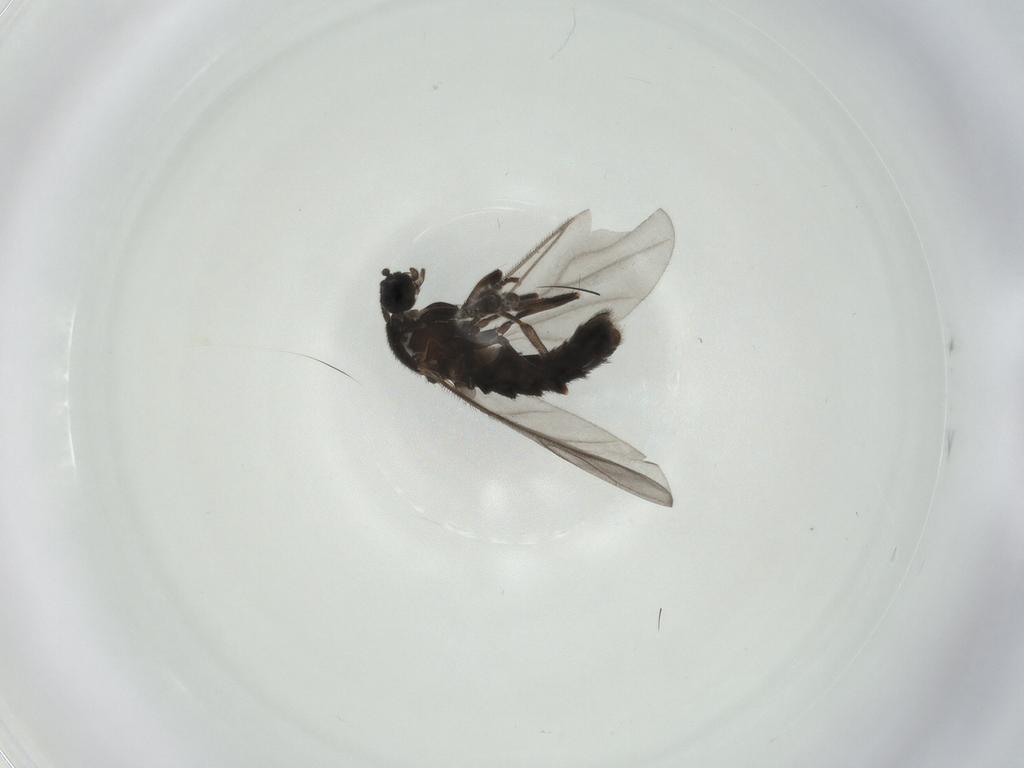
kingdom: Animalia
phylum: Arthropoda
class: Insecta
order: Diptera
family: Scatopsidae
